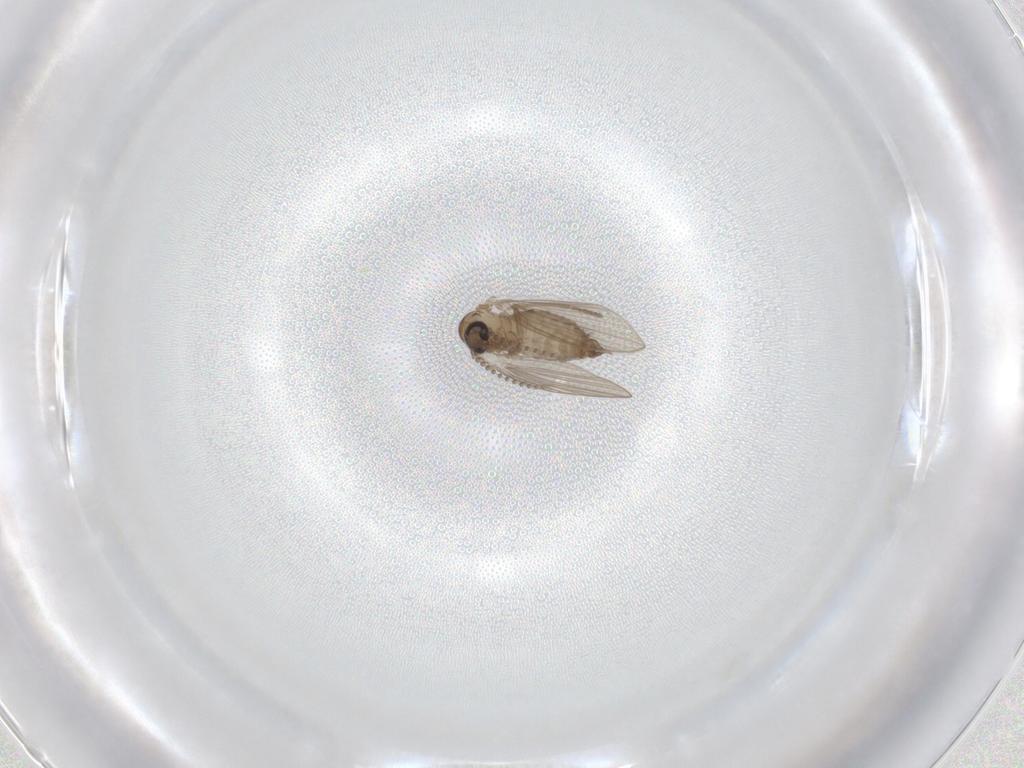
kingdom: Animalia
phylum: Arthropoda
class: Insecta
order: Diptera
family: Psychodidae
